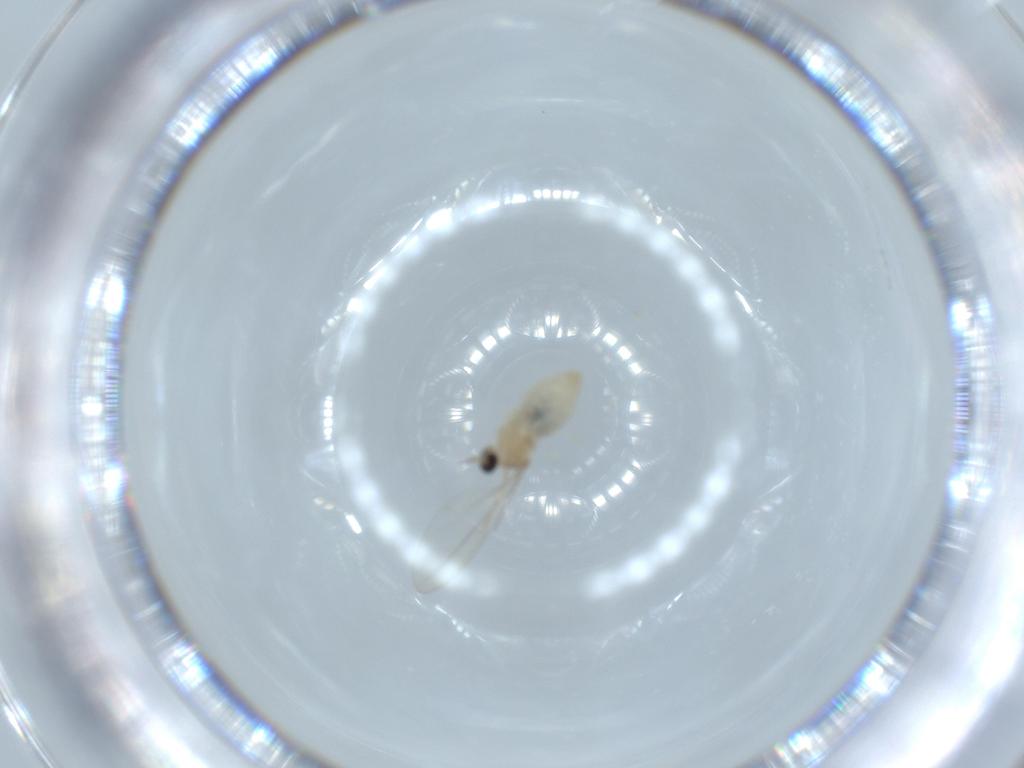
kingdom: Animalia
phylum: Arthropoda
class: Insecta
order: Diptera
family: Cecidomyiidae
